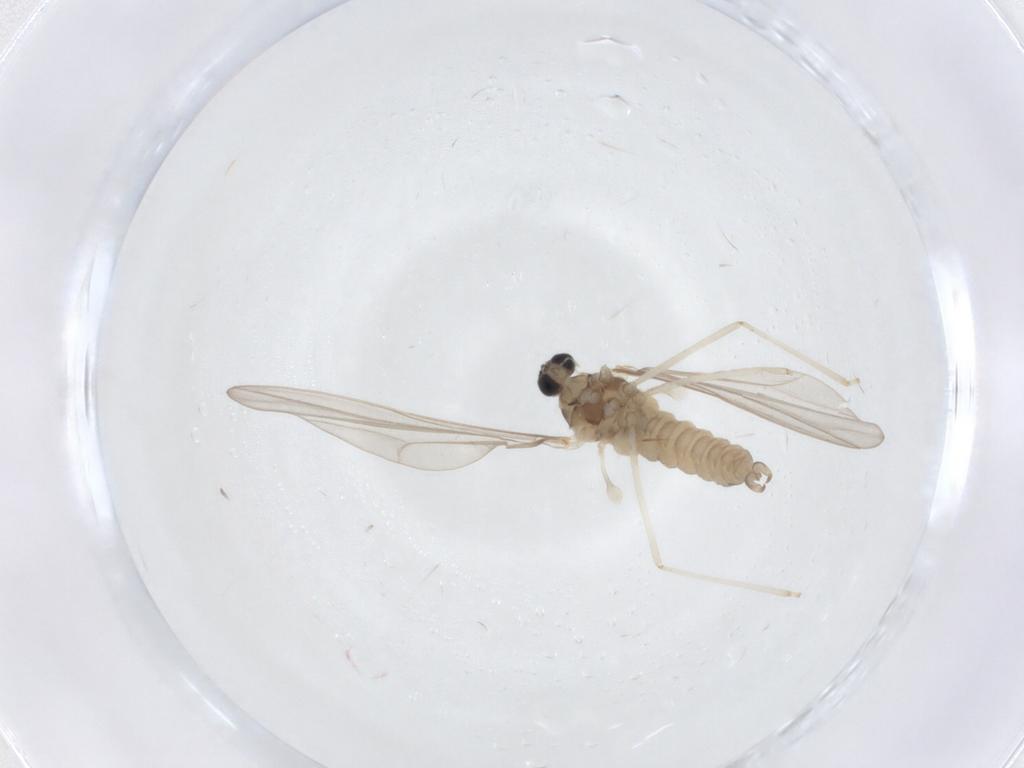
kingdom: Animalia
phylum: Arthropoda
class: Insecta
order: Diptera
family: Cecidomyiidae
